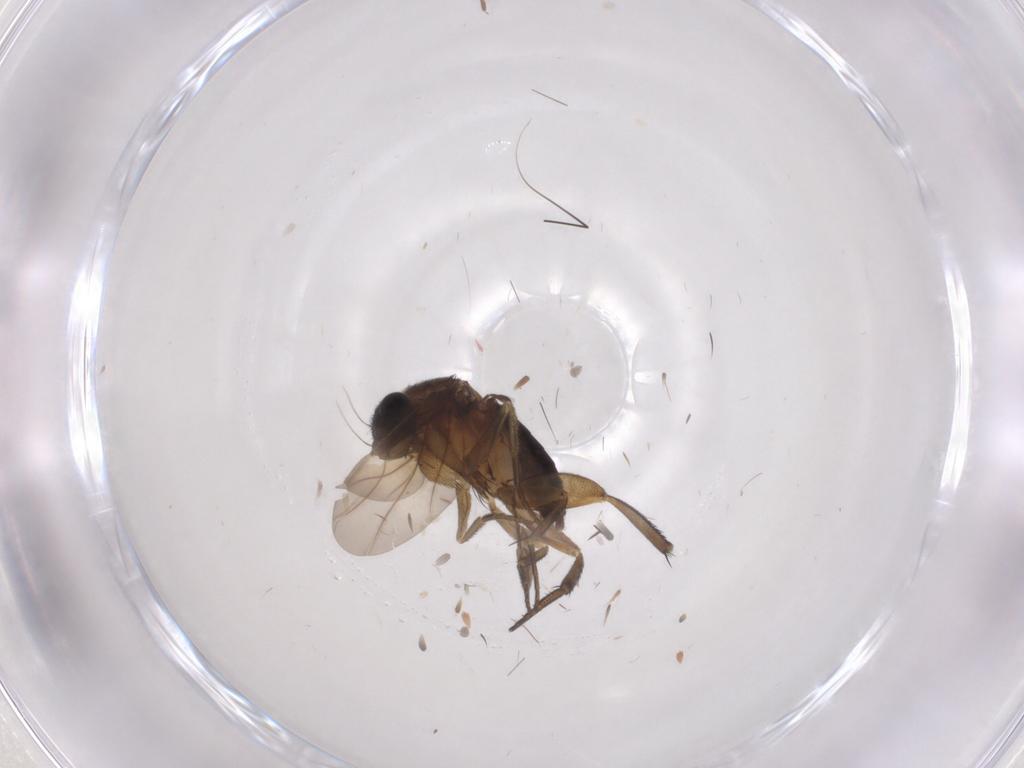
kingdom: Animalia
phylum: Arthropoda
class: Insecta
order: Diptera
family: Phoridae
